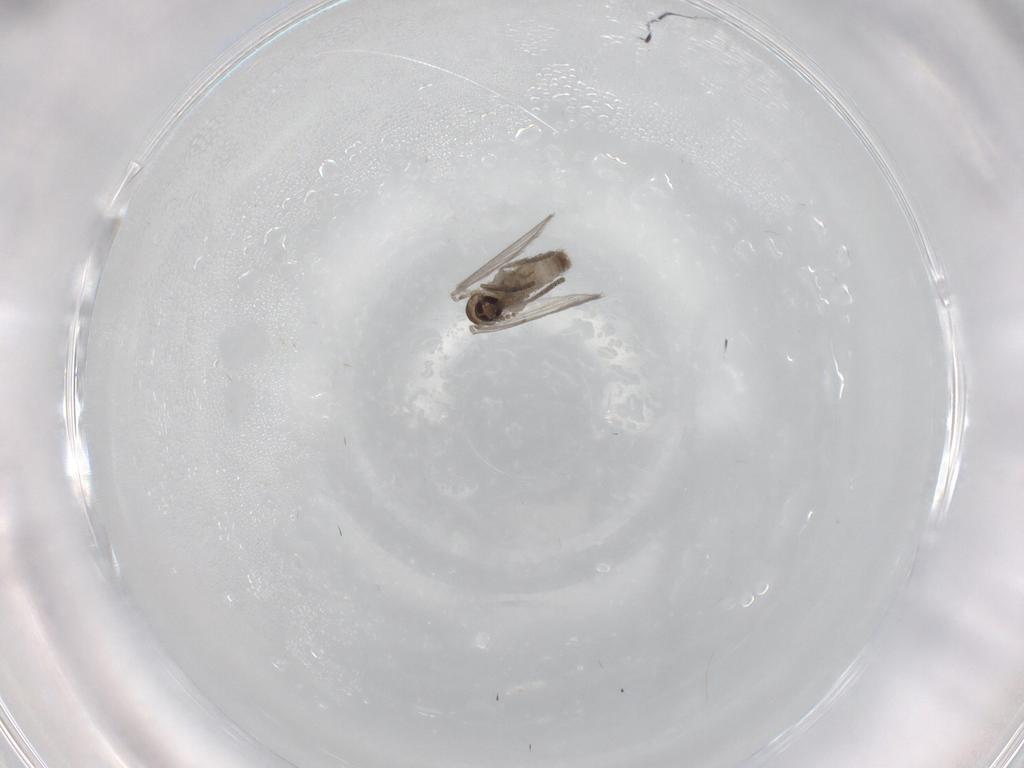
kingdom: Animalia
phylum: Arthropoda
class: Insecta
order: Diptera
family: Psychodidae
